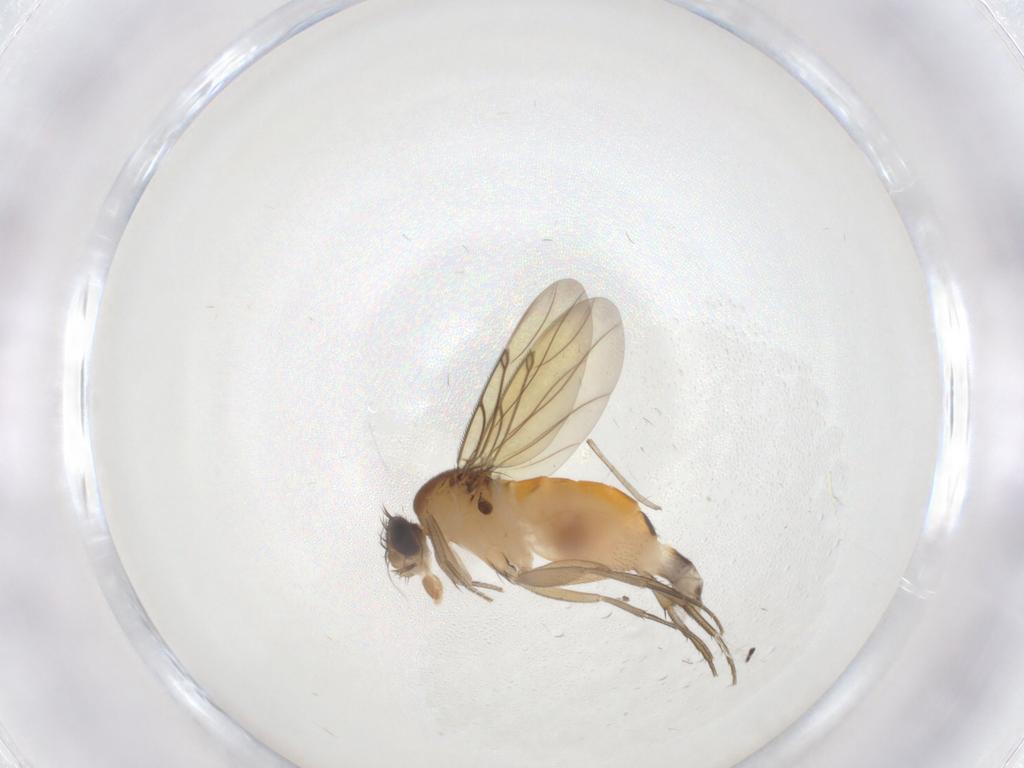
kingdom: Animalia
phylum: Arthropoda
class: Insecta
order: Diptera
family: Phoridae
